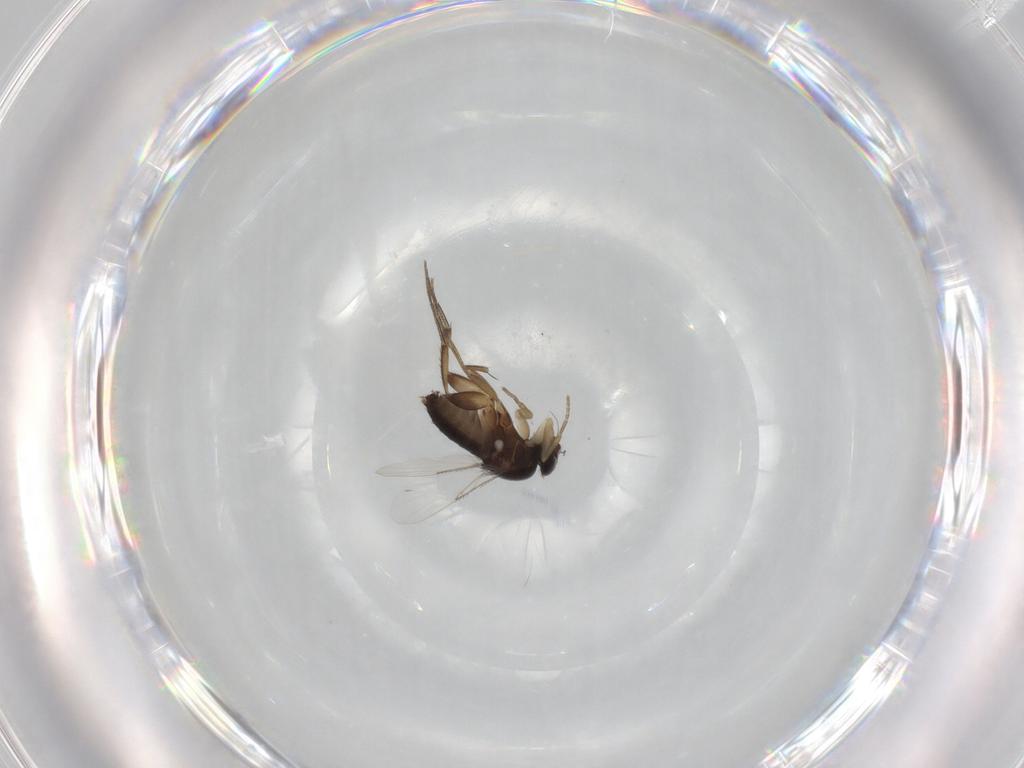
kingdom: Animalia
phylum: Arthropoda
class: Insecta
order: Diptera
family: Phoridae
